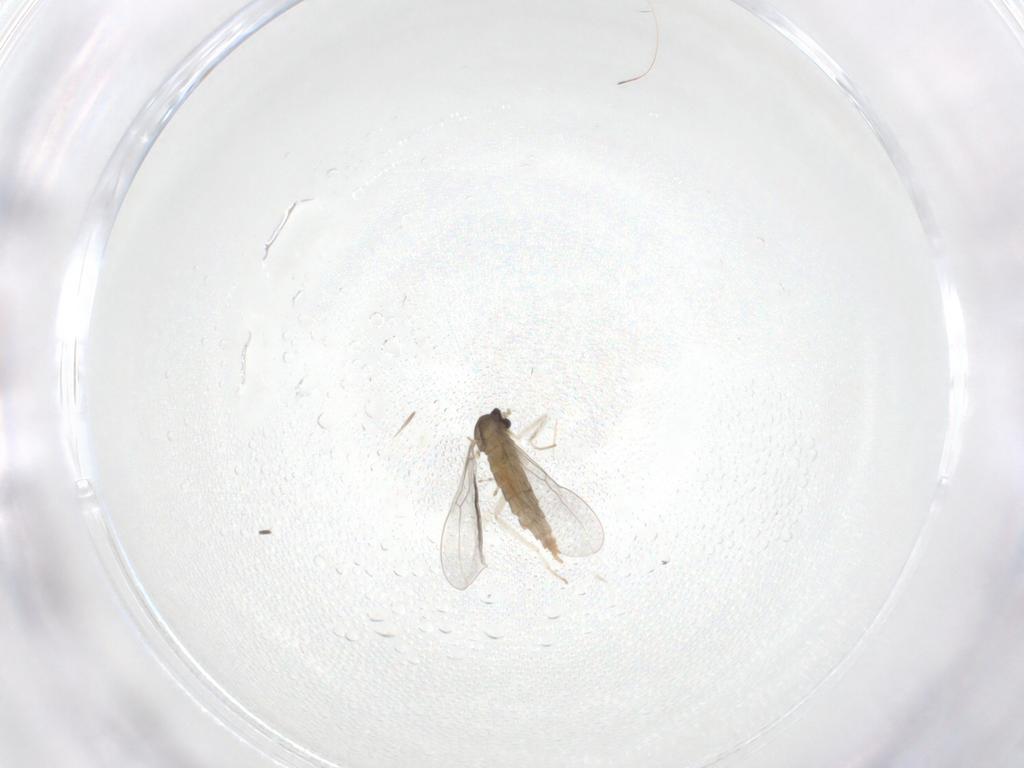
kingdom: Animalia
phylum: Arthropoda
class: Insecta
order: Diptera
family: Cecidomyiidae
